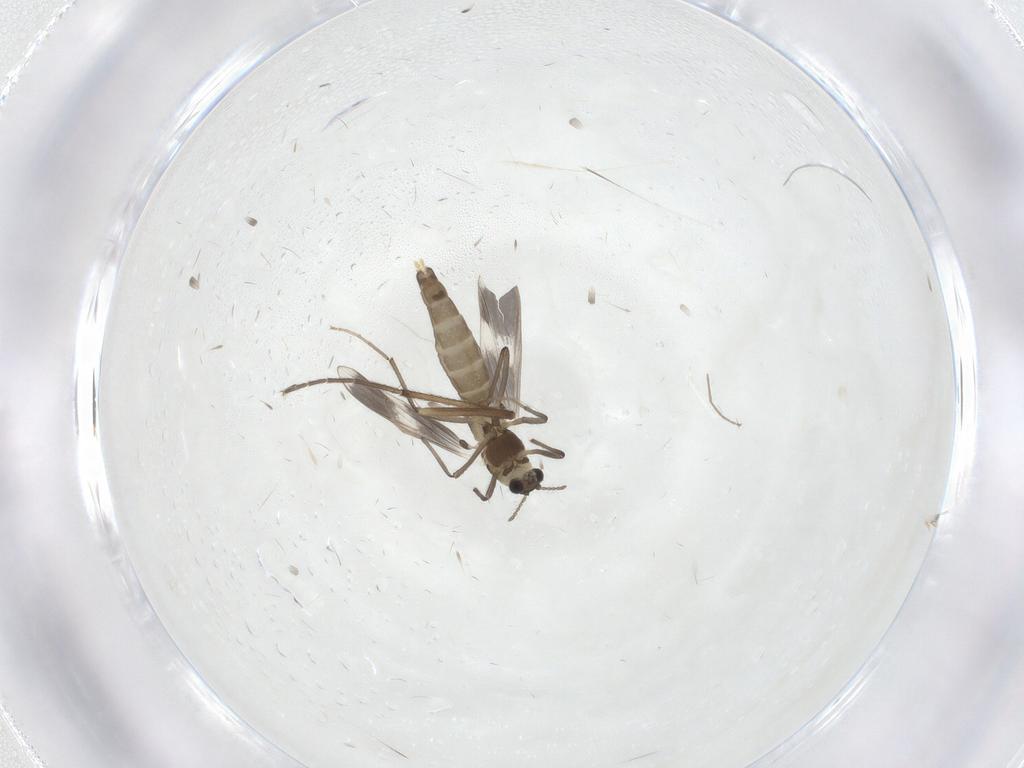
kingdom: Animalia
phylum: Arthropoda
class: Insecta
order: Diptera
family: Chironomidae
